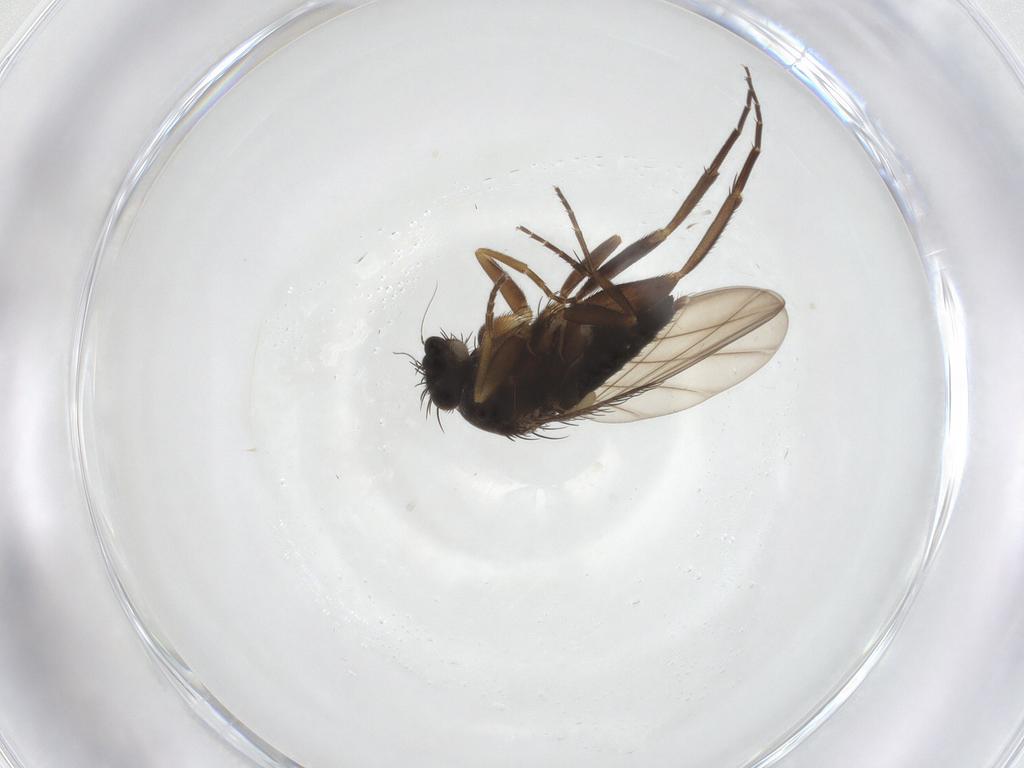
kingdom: Animalia
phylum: Arthropoda
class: Insecta
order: Diptera
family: Phoridae
